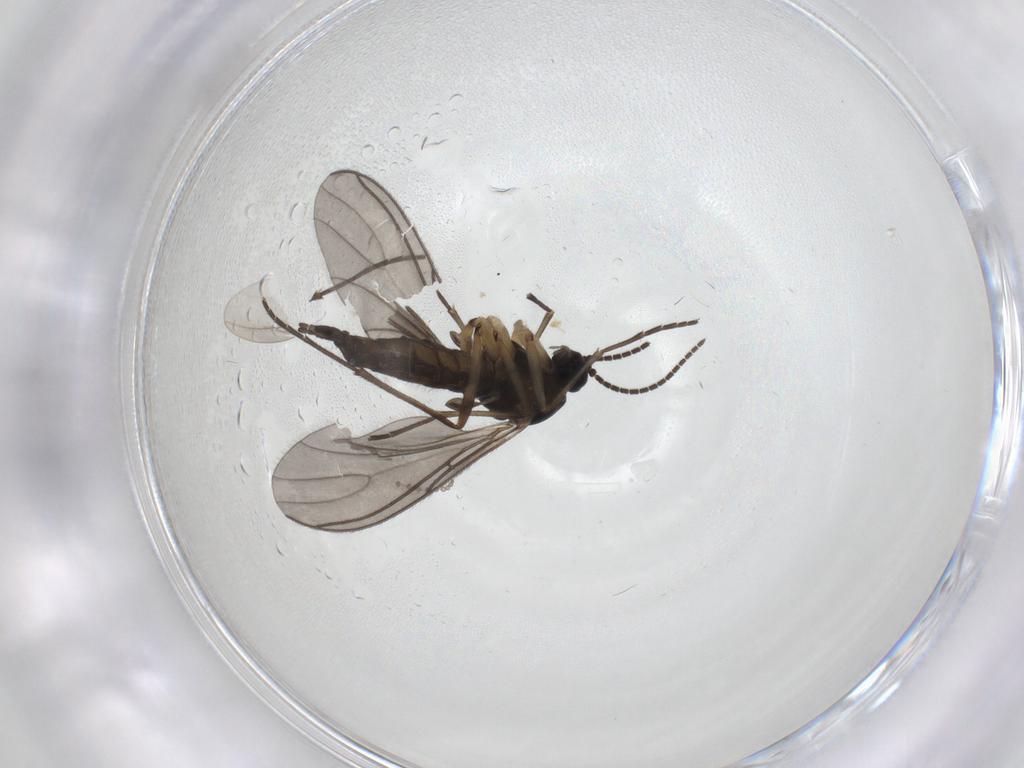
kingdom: Animalia
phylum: Arthropoda
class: Insecta
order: Diptera
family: Sciaridae
